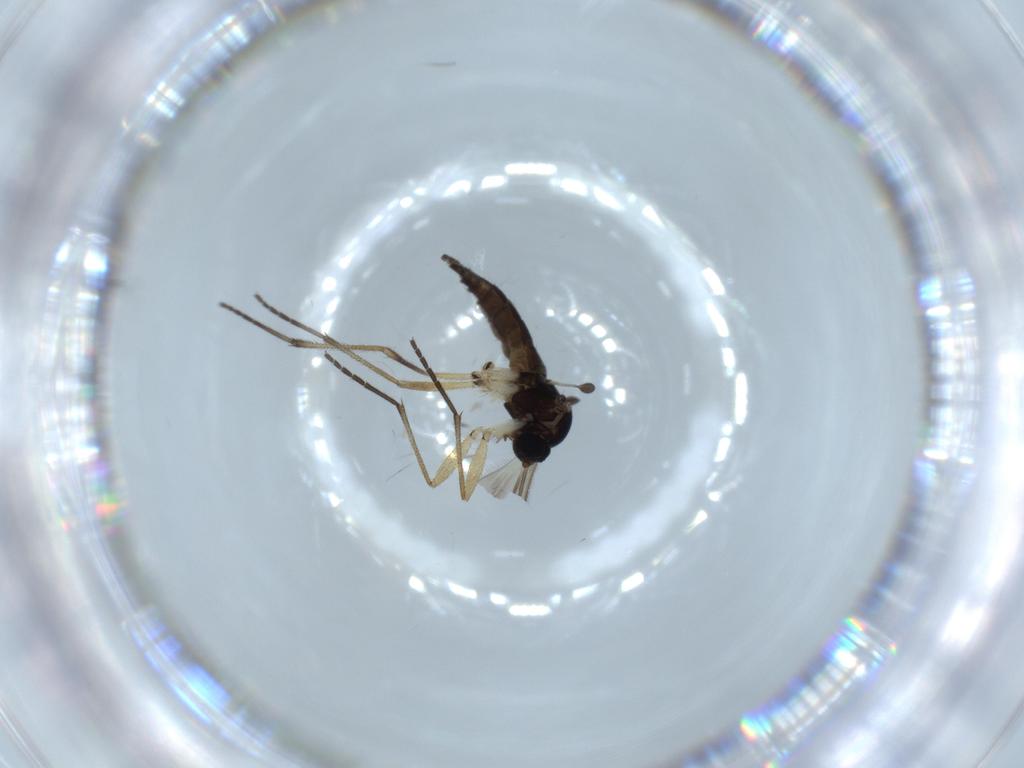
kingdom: Animalia
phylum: Arthropoda
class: Insecta
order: Diptera
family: Sciaridae
